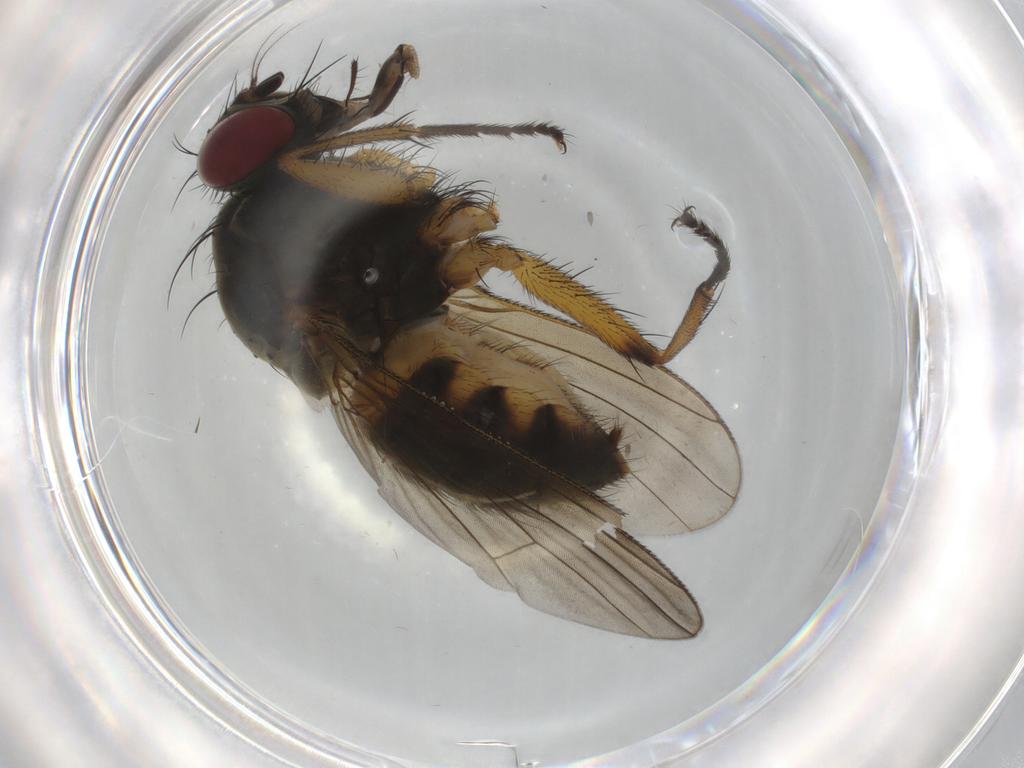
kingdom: Animalia
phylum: Arthropoda
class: Insecta
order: Diptera
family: Muscidae
